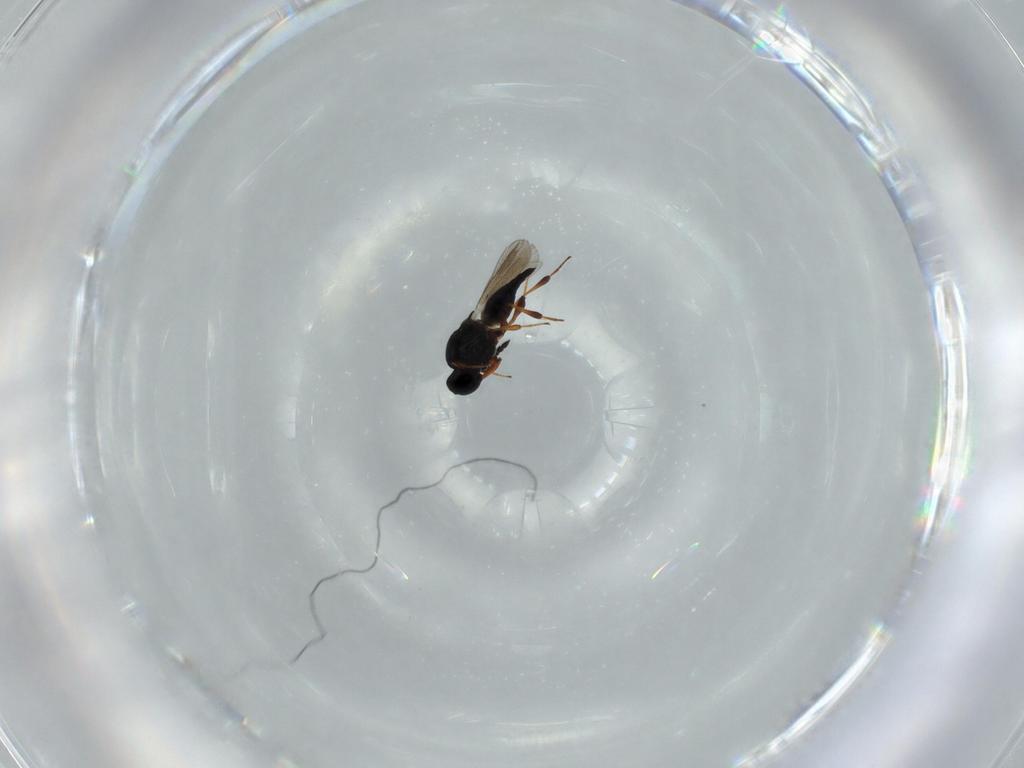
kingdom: Animalia
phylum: Arthropoda
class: Insecta
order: Hymenoptera
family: Platygastridae
